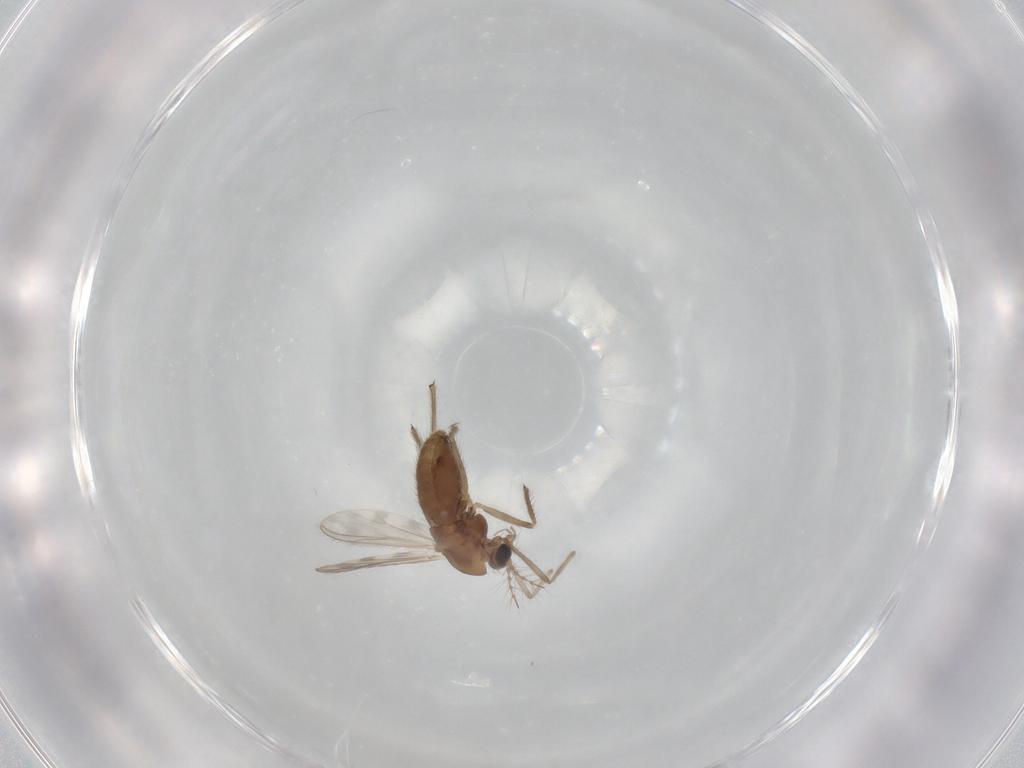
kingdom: Animalia
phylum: Arthropoda
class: Insecta
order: Diptera
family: Chironomidae
